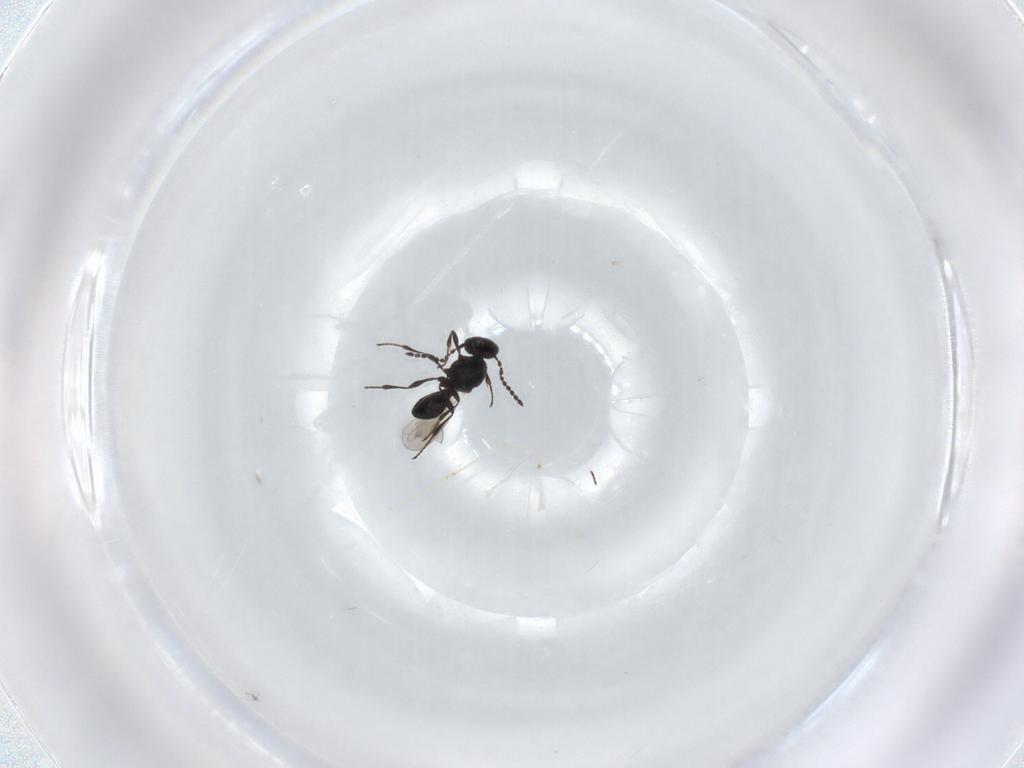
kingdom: Animalia
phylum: Arthropoda
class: Insecta
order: Hymenoptera
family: Platygastridae
